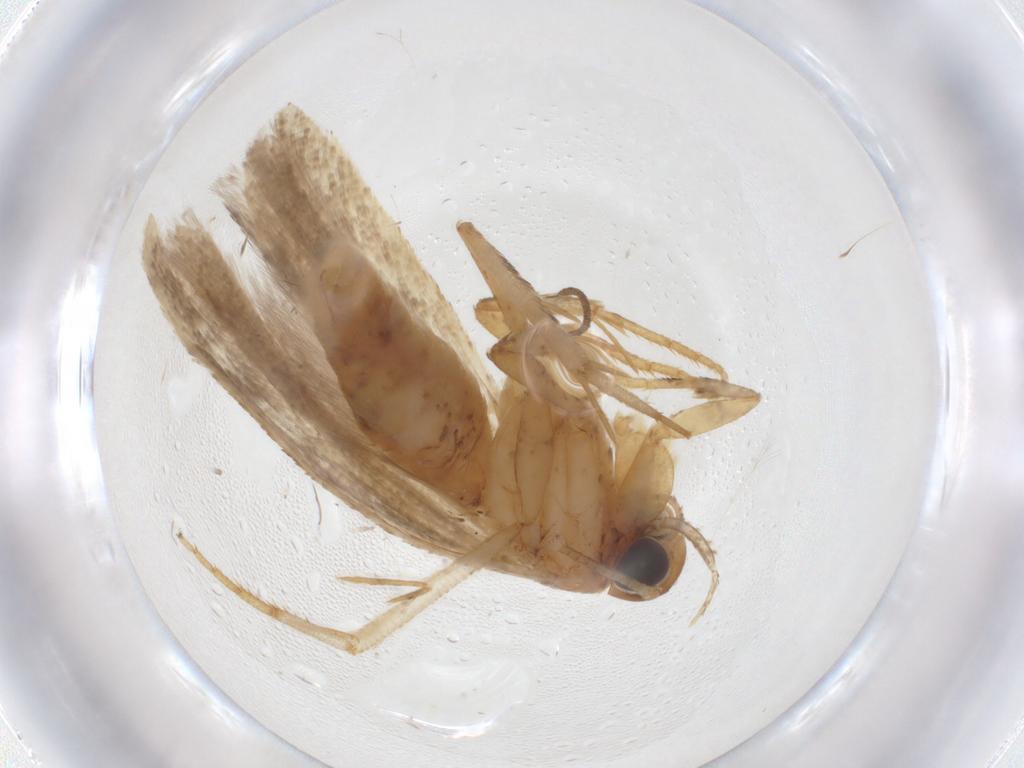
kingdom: Animalia
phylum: Arthropoda
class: Insecta
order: Lepidoptera
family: Gelechiidae
